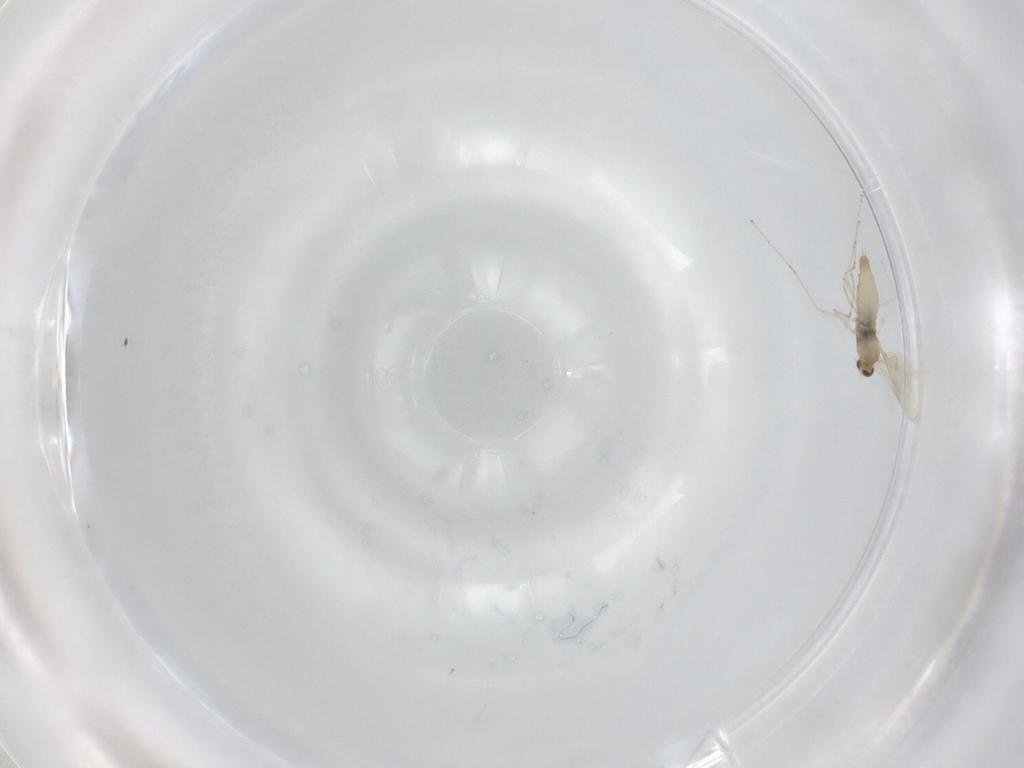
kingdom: Animalia
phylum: Arthropoda
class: Insecta
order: Diptera
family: Cecidomyiidae
